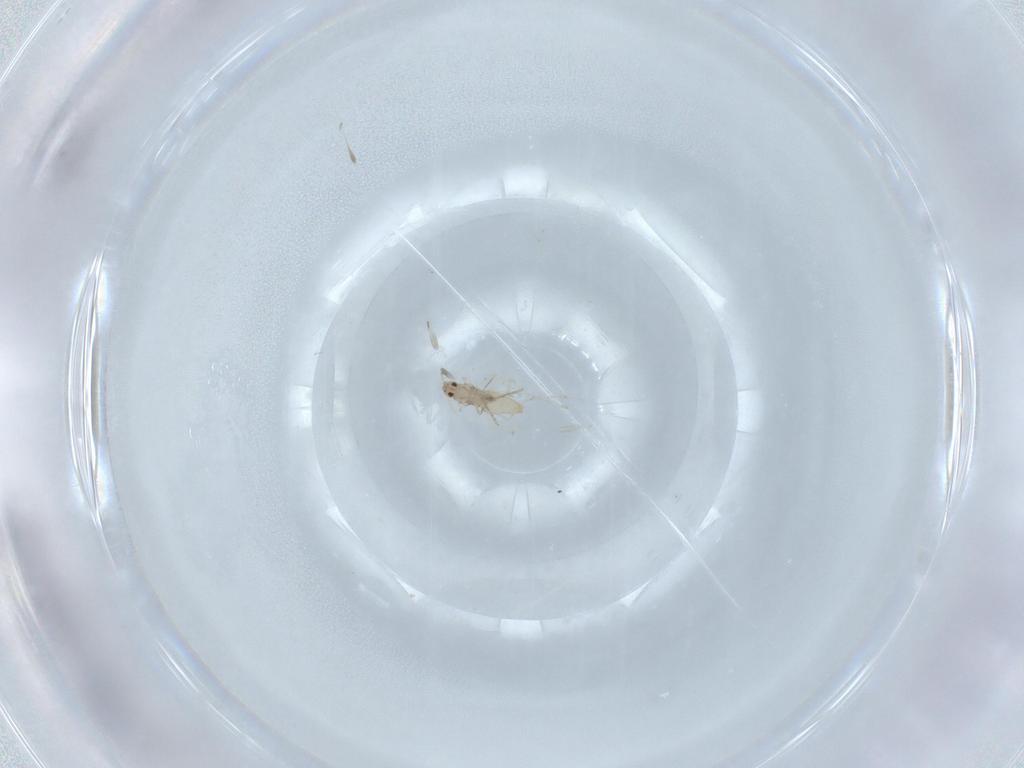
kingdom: Animalia
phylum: Arthropoda
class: Insecta
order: Diptera
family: Cecidomyiidae
